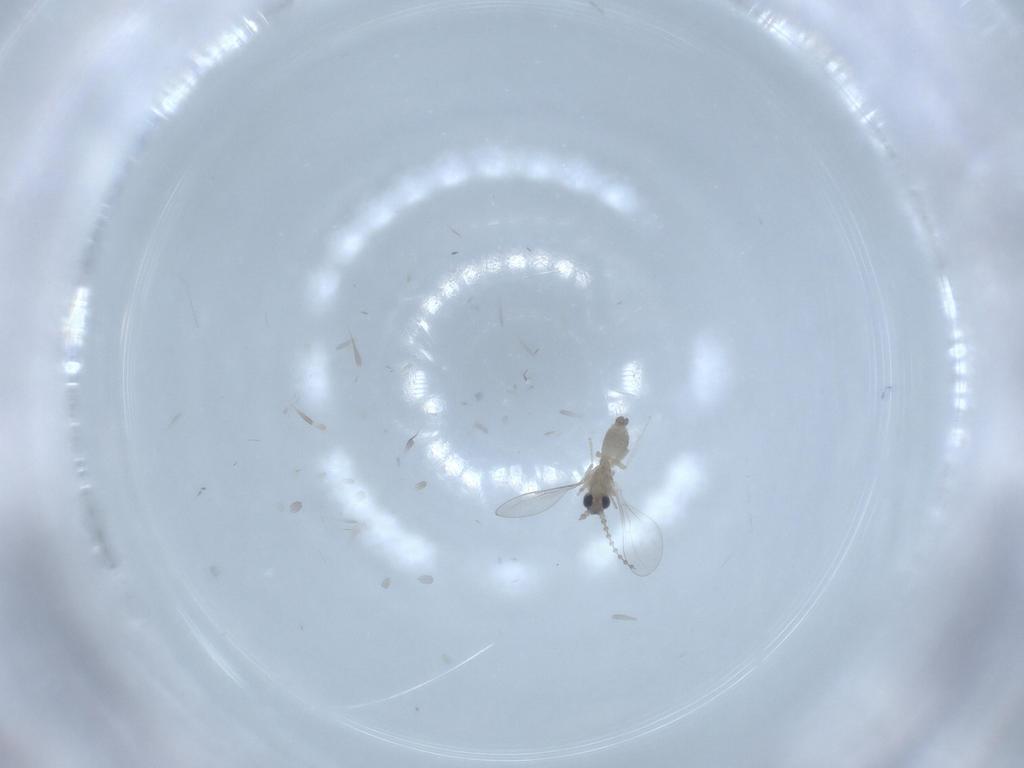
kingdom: Animalia
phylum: Arthropoda
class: Insecta
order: Diptera
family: Cecidomyiidae
